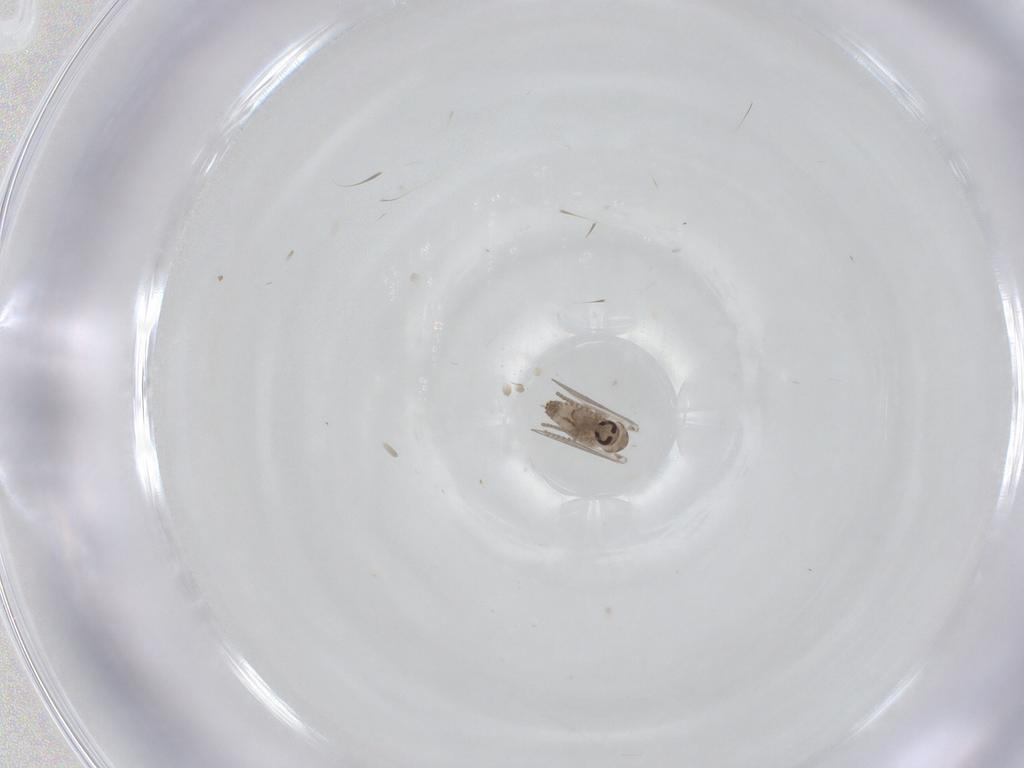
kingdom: Animalia
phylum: Arthropoda
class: Insecta
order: Diptera
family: Psychodidae
